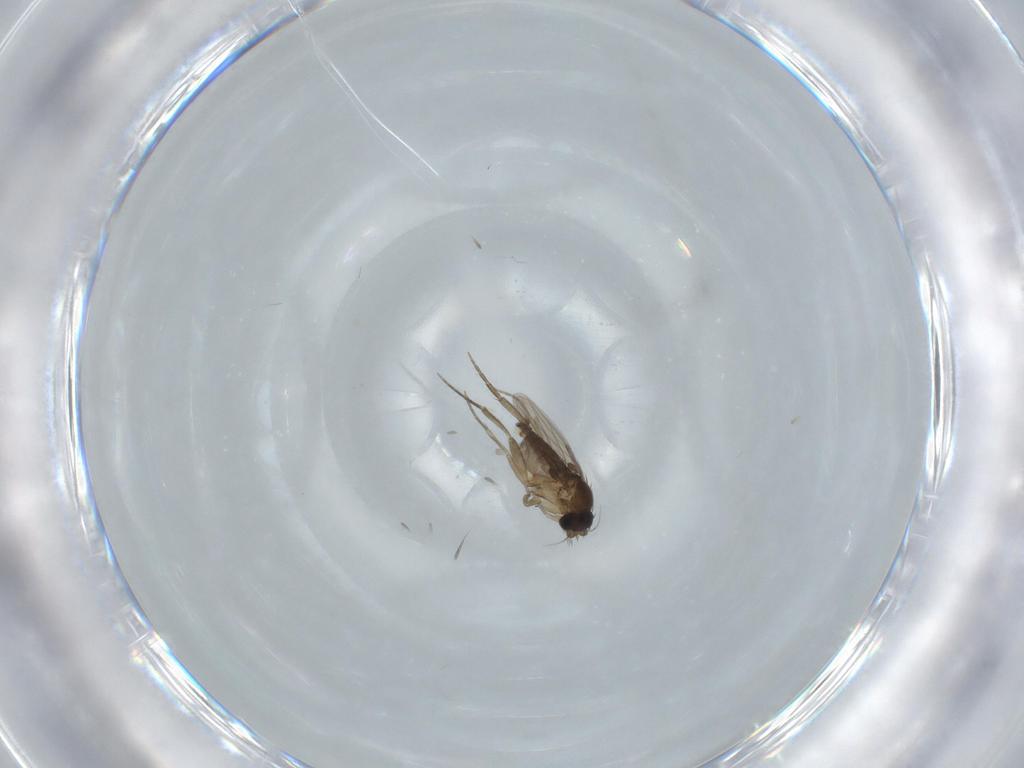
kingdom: Animalia
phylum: Arthropoda
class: Insecta
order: Diptera
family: Phoridae
